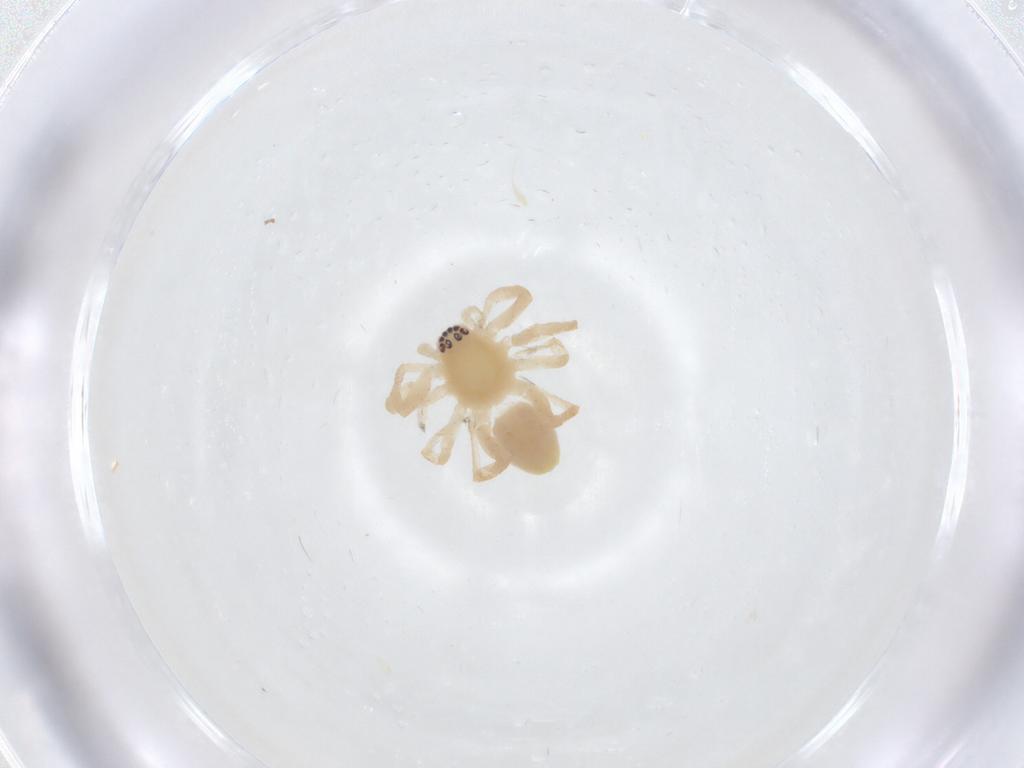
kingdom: Animalia
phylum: Arthropoda
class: Arachnida
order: Araneae
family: Anyphaenidae
